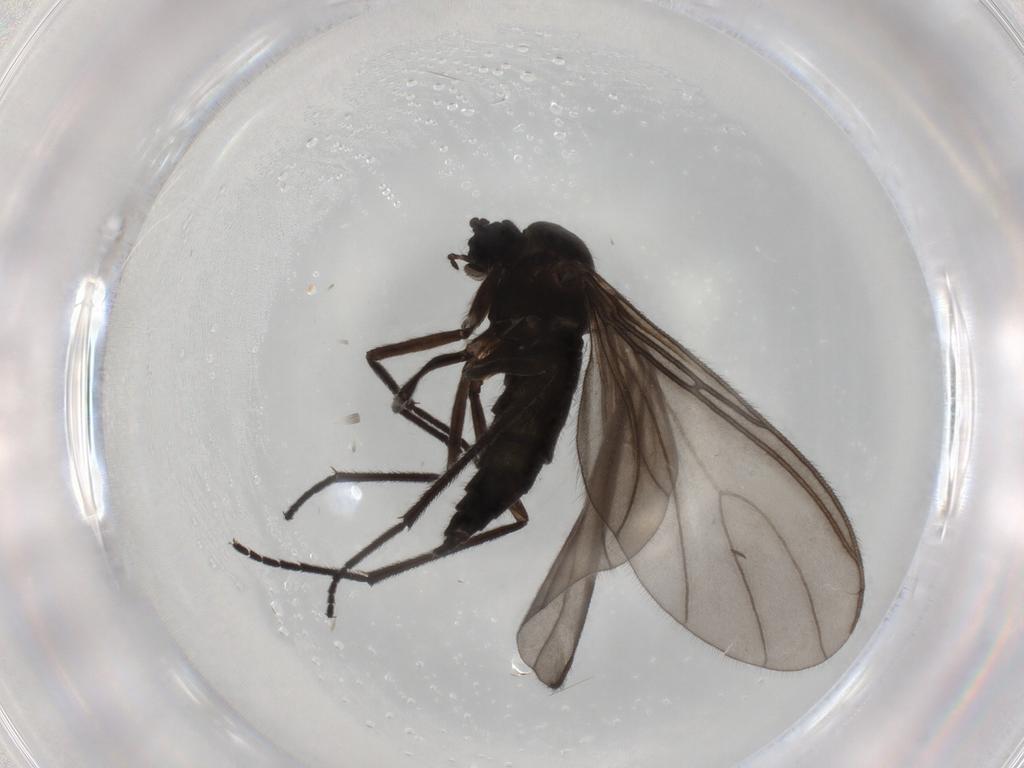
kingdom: Animalia
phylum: Arthropoda
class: Insecta
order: Diptera
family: Sciaridae
